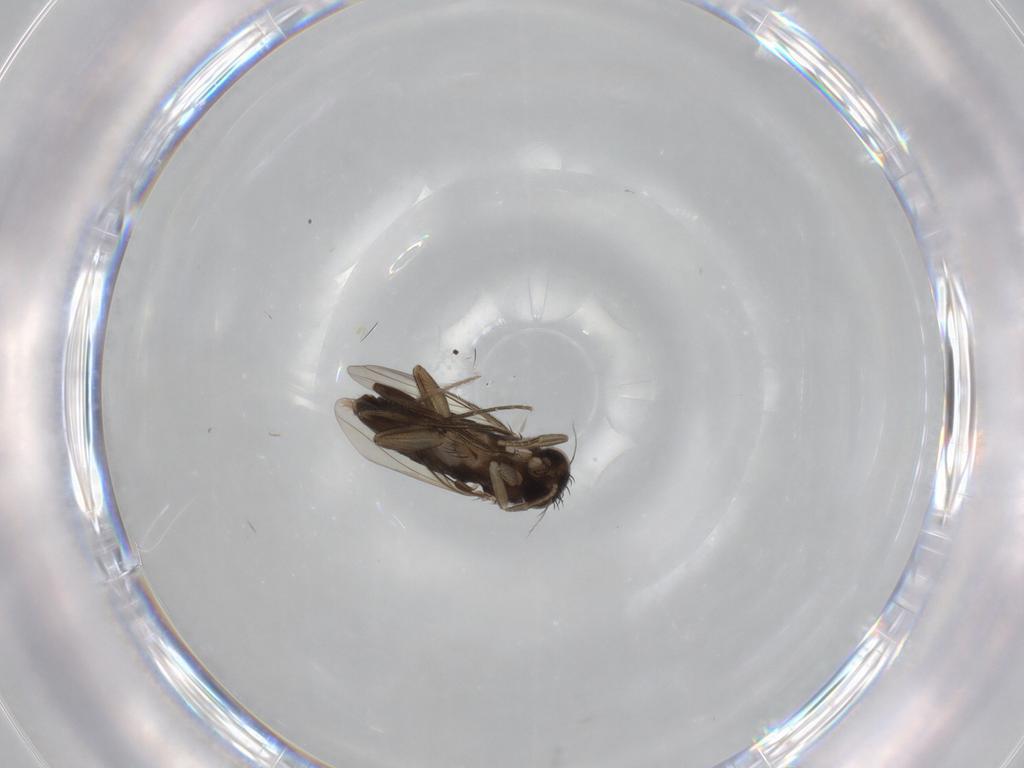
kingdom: Animalia
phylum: Arthropoda
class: Insecta
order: Diptera
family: Phoridae
